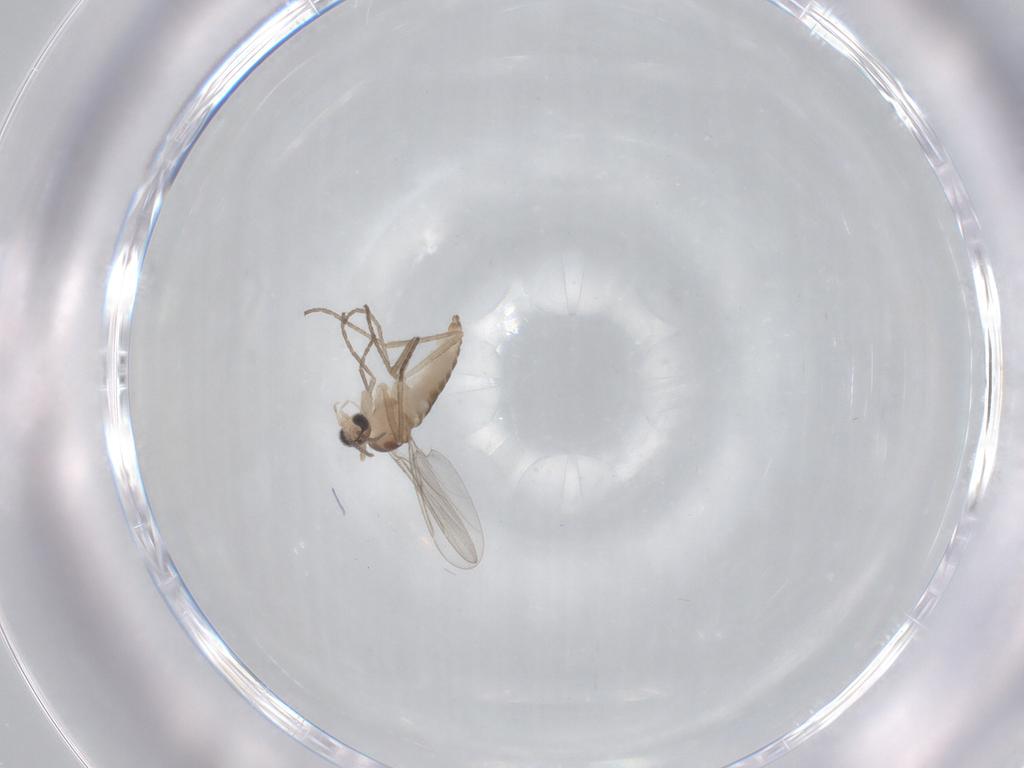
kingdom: Animalia
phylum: Arthropoda
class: Insecta
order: Diptera
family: Cecidomyiidae
